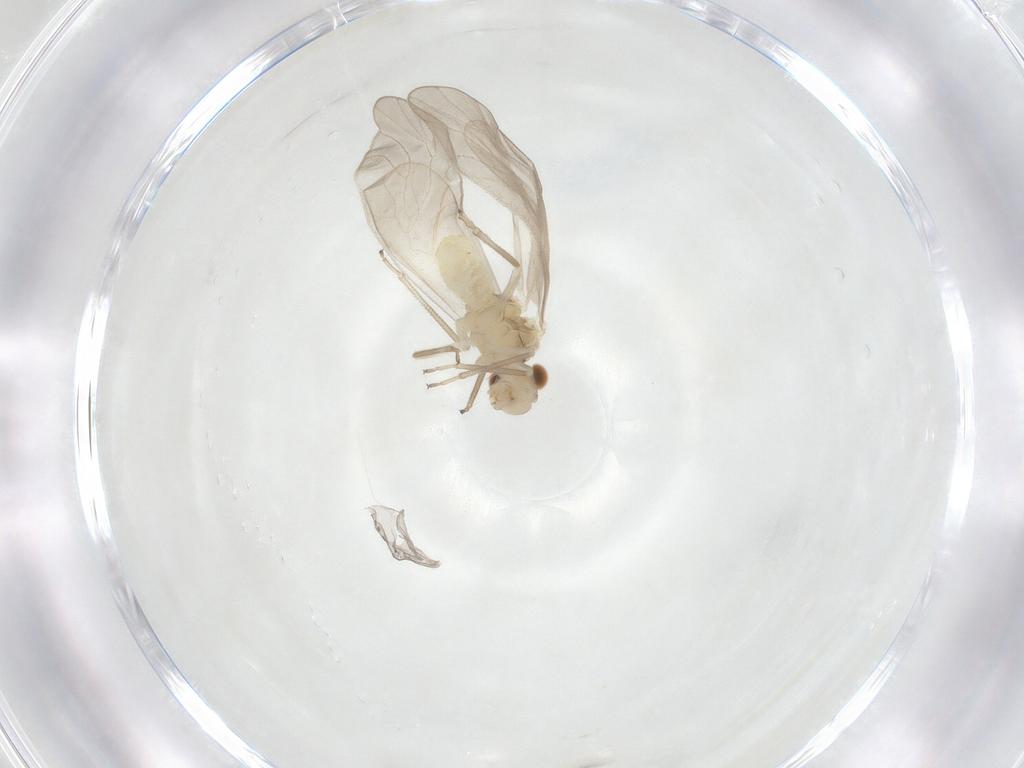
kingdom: Animalia
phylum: Arthropoda
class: Insecta
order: Psocodea
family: Caeciliusidae
